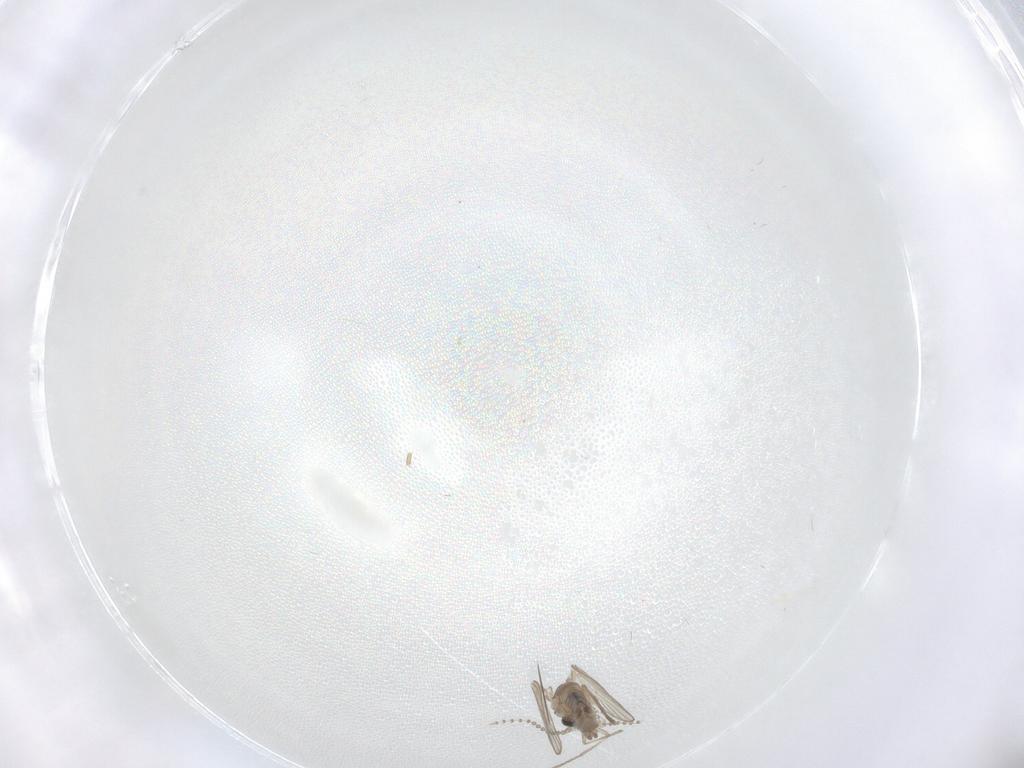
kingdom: Animalia
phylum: Arthropoda
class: Insecta
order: Diptera
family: Psychodidae
